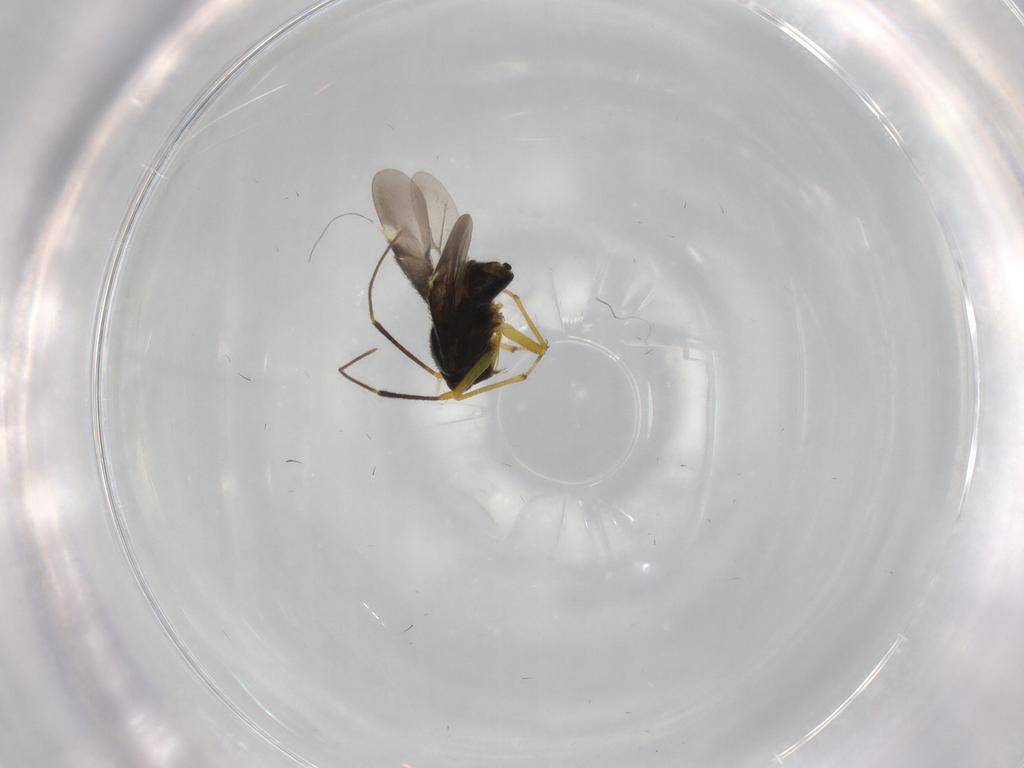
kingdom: Animalia
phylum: Arthropoda
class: Insecta
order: Hemiptera
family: Miridae
